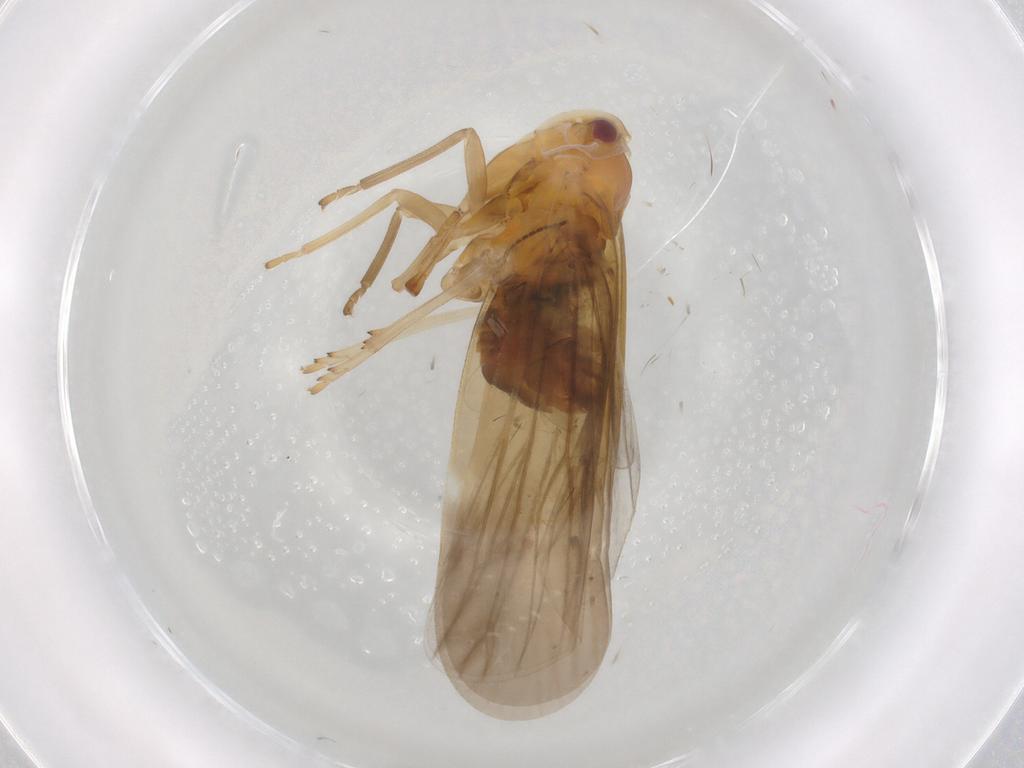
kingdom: Animalia
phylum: Arthropoda
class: Insecta
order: Hemiptera
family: Derbidae
